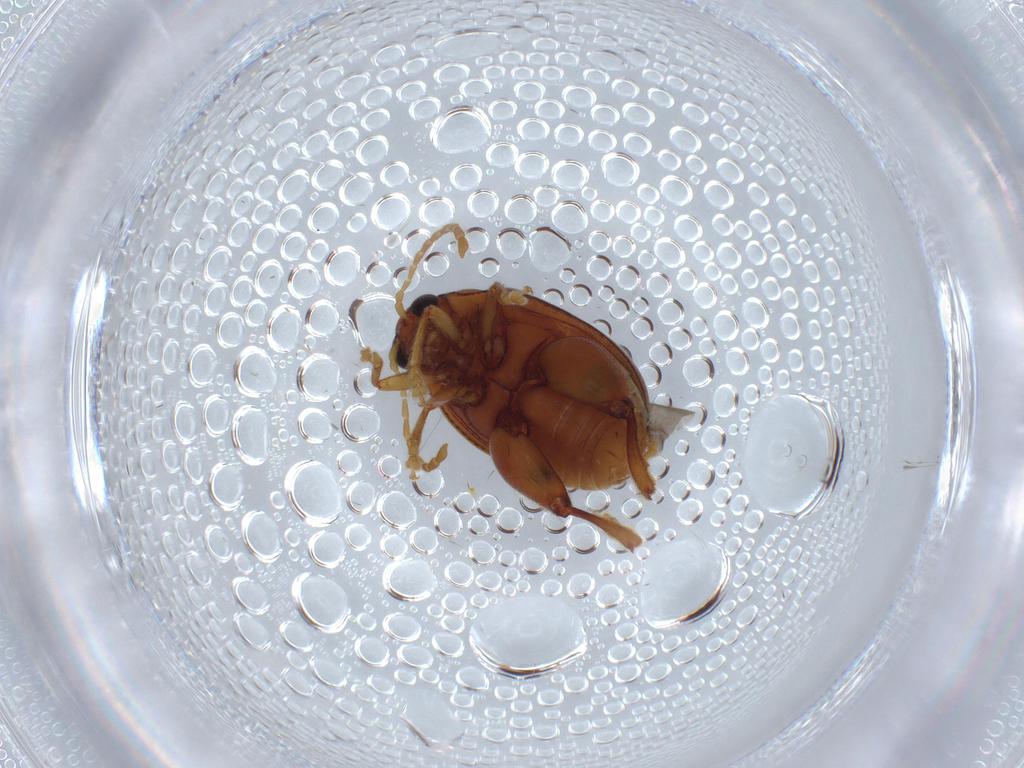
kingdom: Animalia
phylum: Arthropoda
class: Insecta
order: Coleoptera
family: Chrysomelidae
